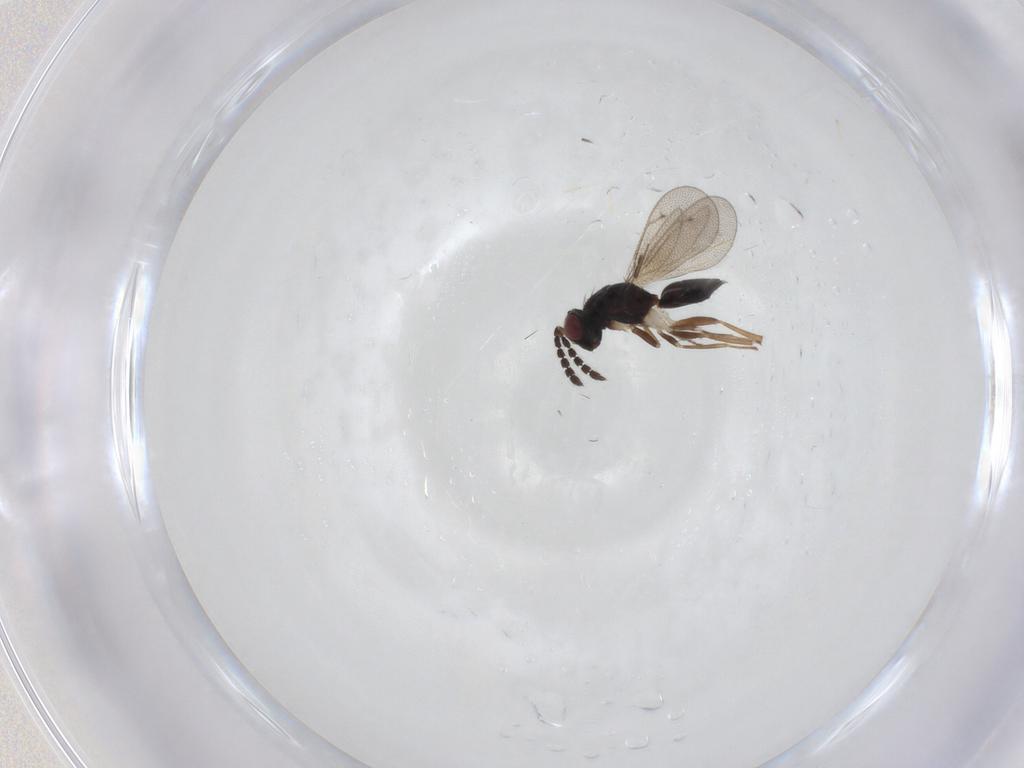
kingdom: Animalia
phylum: Arthropoda
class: Insecta
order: Hymenoptera
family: Eulophidae
